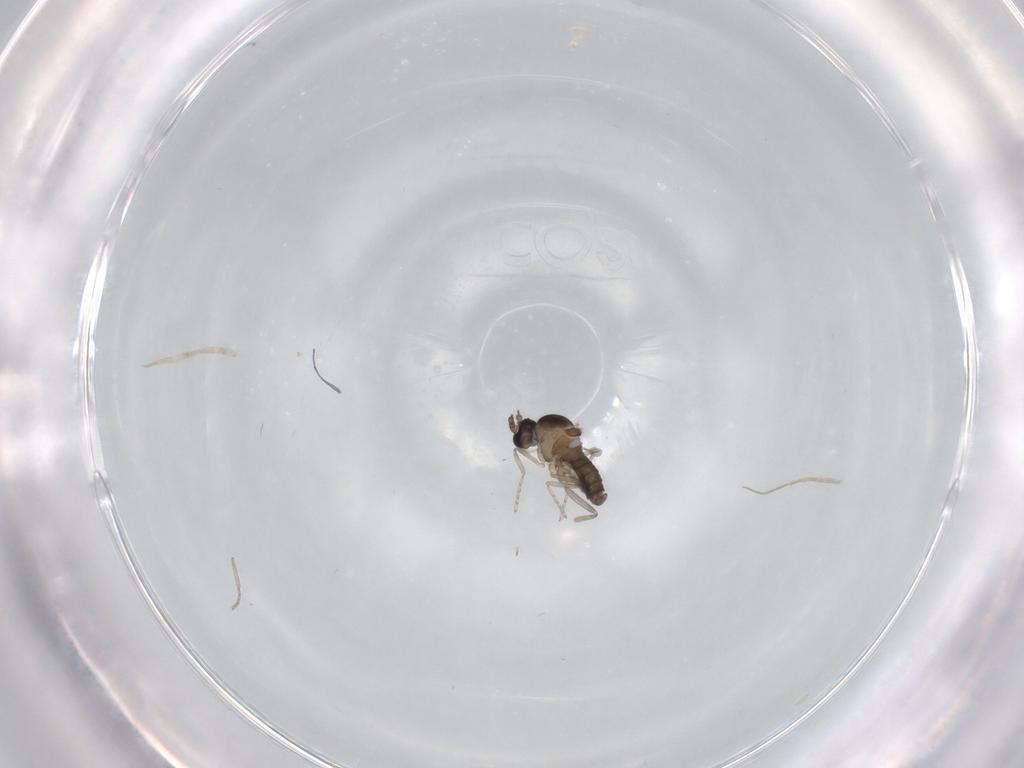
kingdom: Animalia
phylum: Arthropoda
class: Insecta
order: Diptera
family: Cecidomyiidae
